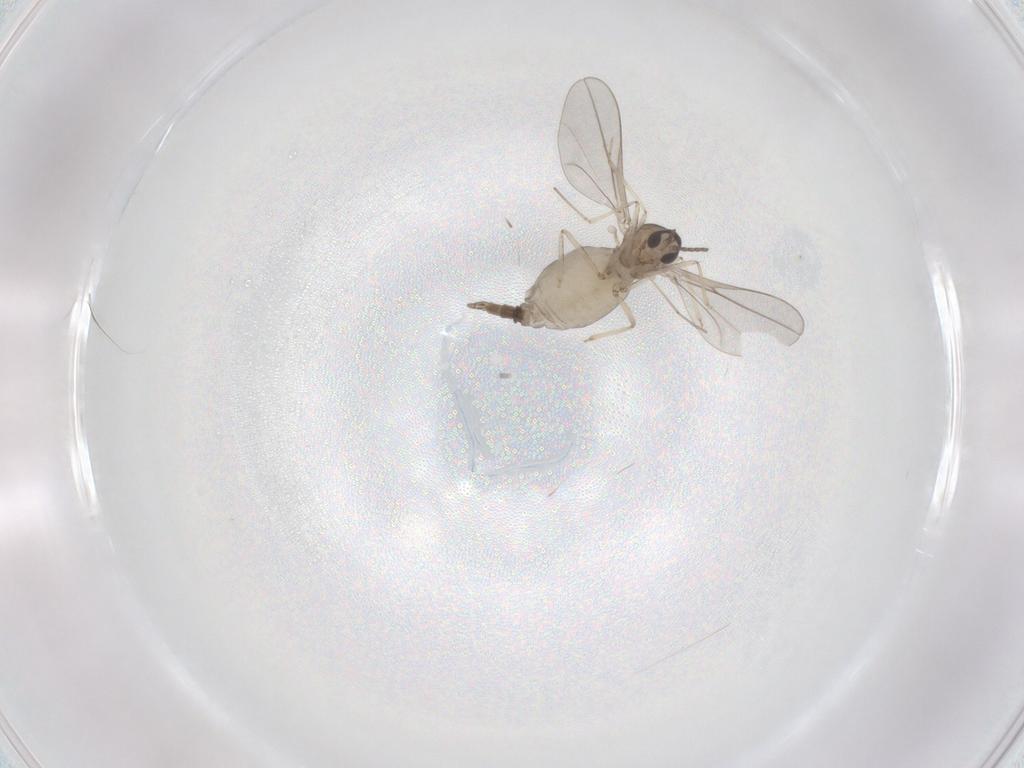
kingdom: Animalia
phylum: Arthropoda
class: Insecta
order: Diptera
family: Cecidomyiidae
